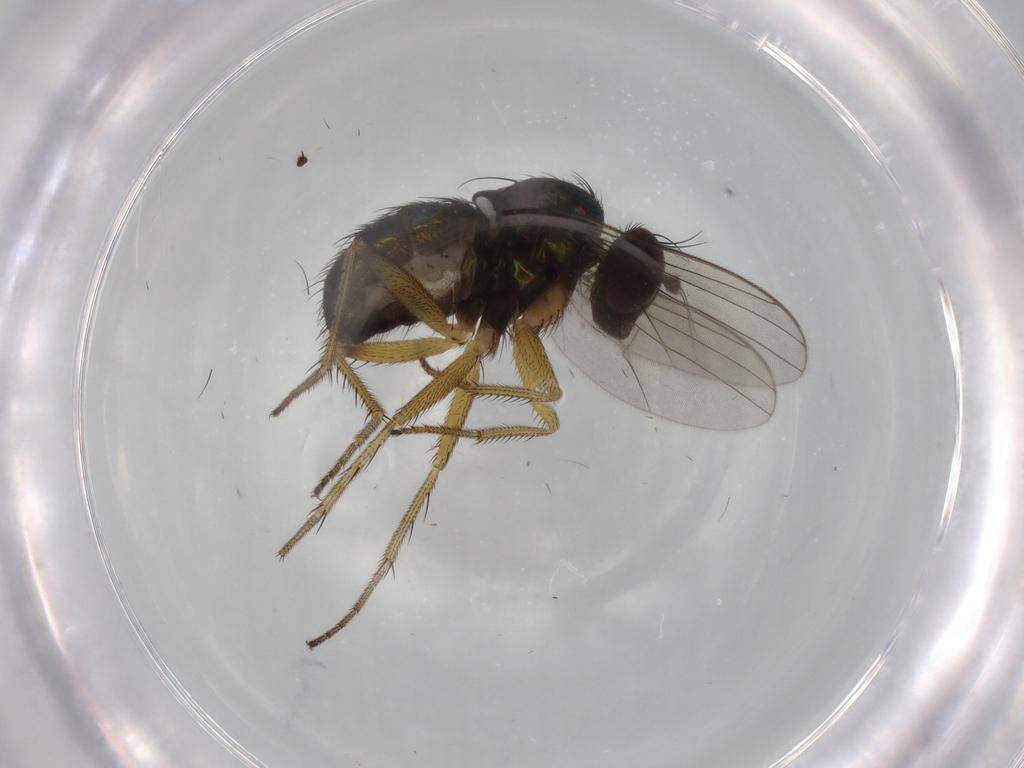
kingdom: Animalia
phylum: Arthropoda
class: Insecta
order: Diptera
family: Dolichopodidae
